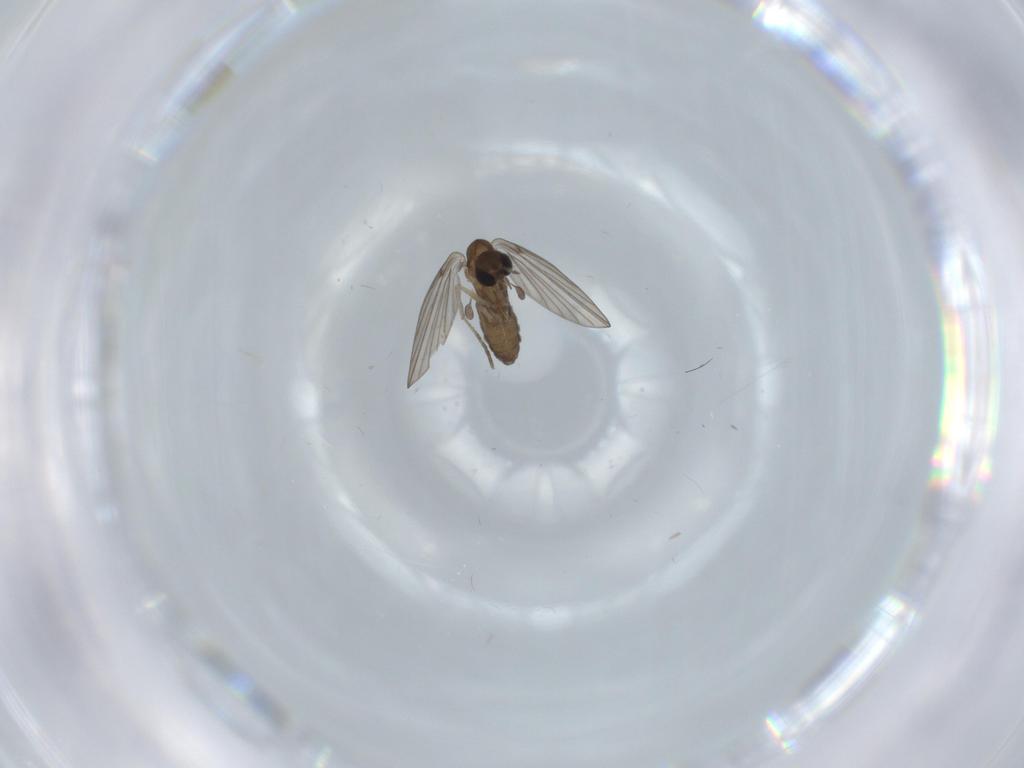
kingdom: Animalia
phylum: Arthropoda
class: Insecta
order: Diptera
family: Psychodidae
